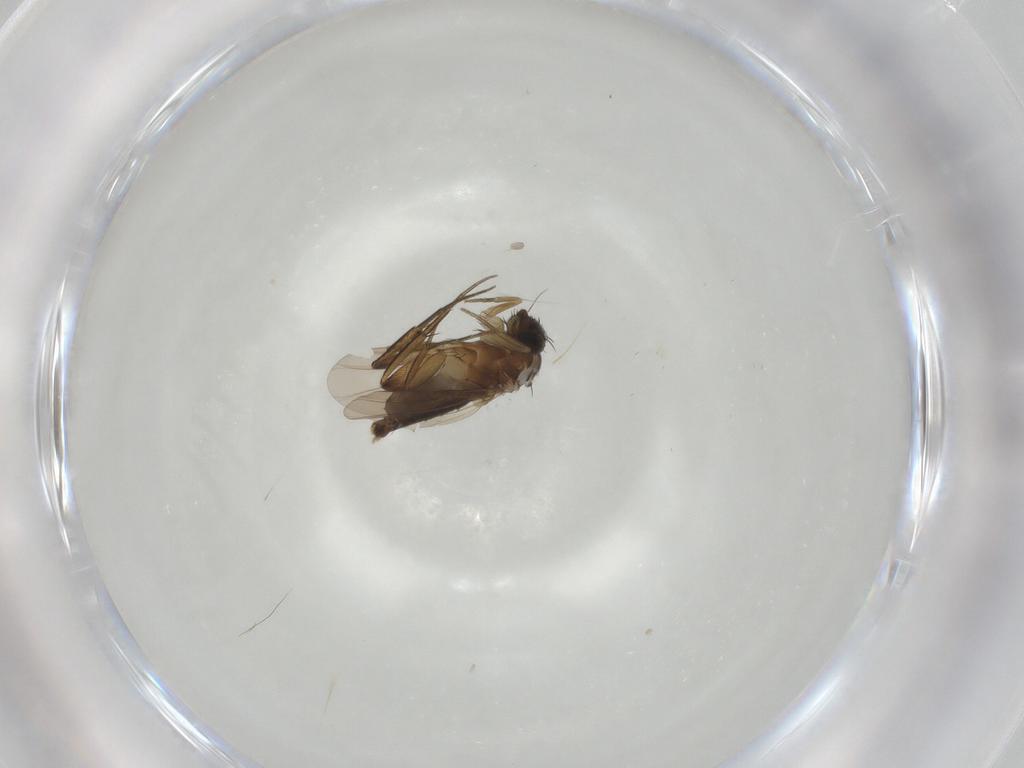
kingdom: Animalia
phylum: Arthropoda
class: Insecta
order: Diptera
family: Phoridae
